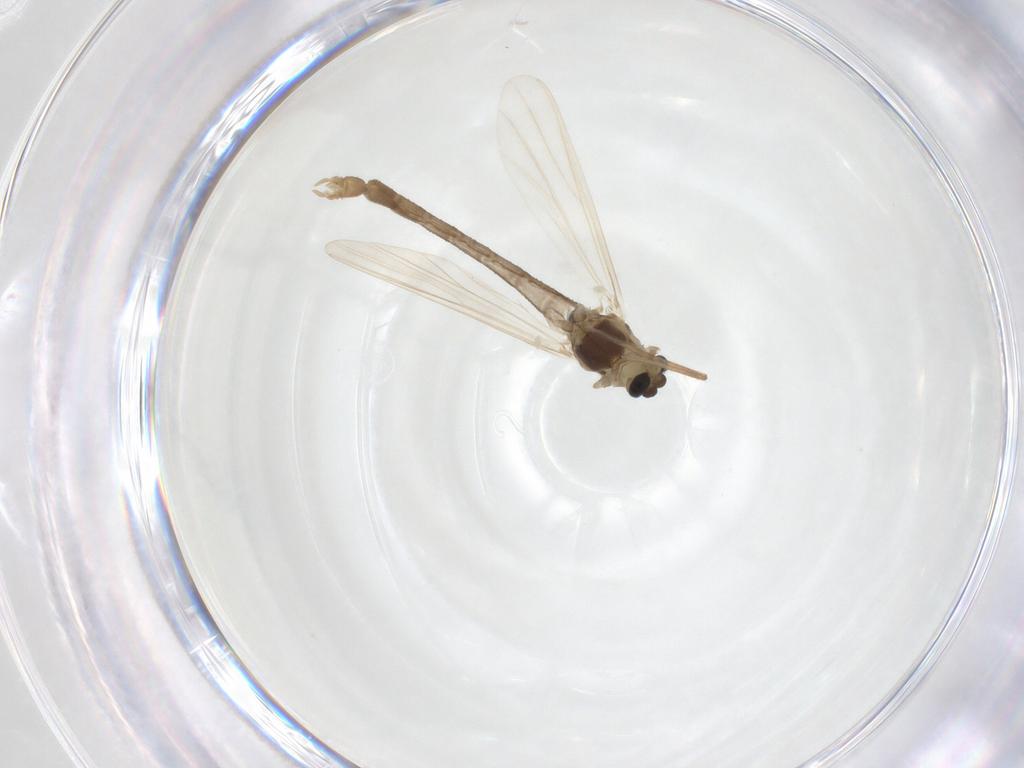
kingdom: Animalia
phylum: Arthropoda
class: Insecta
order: Diptera
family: Chironomidae
